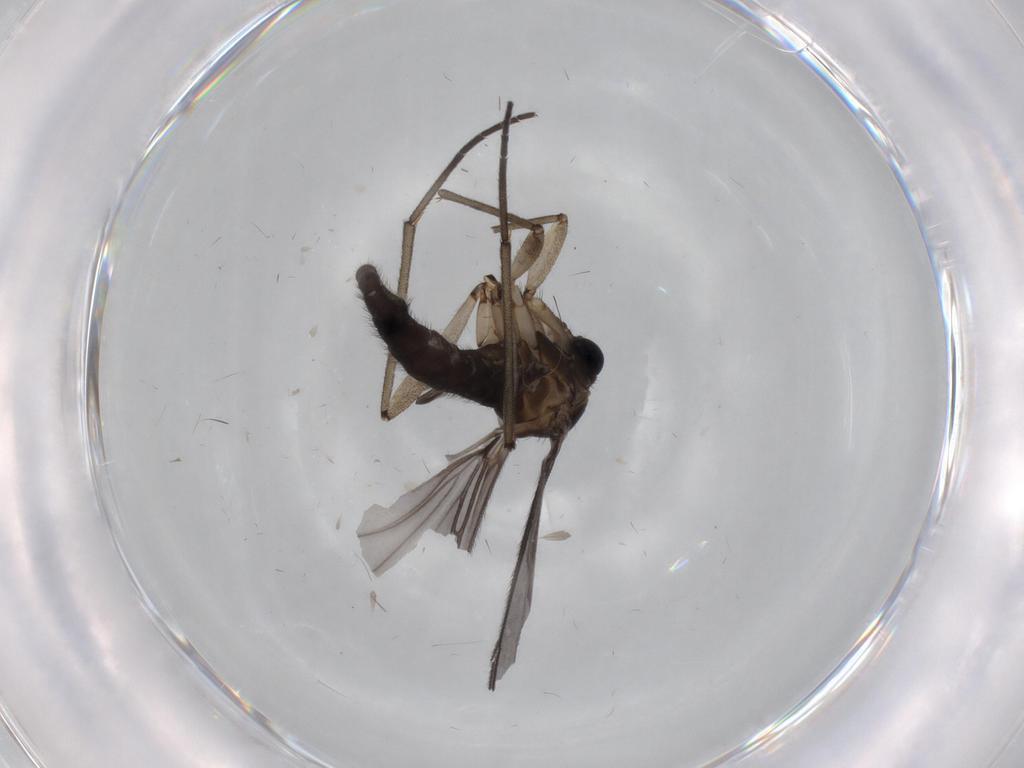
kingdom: Animalia
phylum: Arthropoda
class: Insecta
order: Diptera
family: Sciaridae
